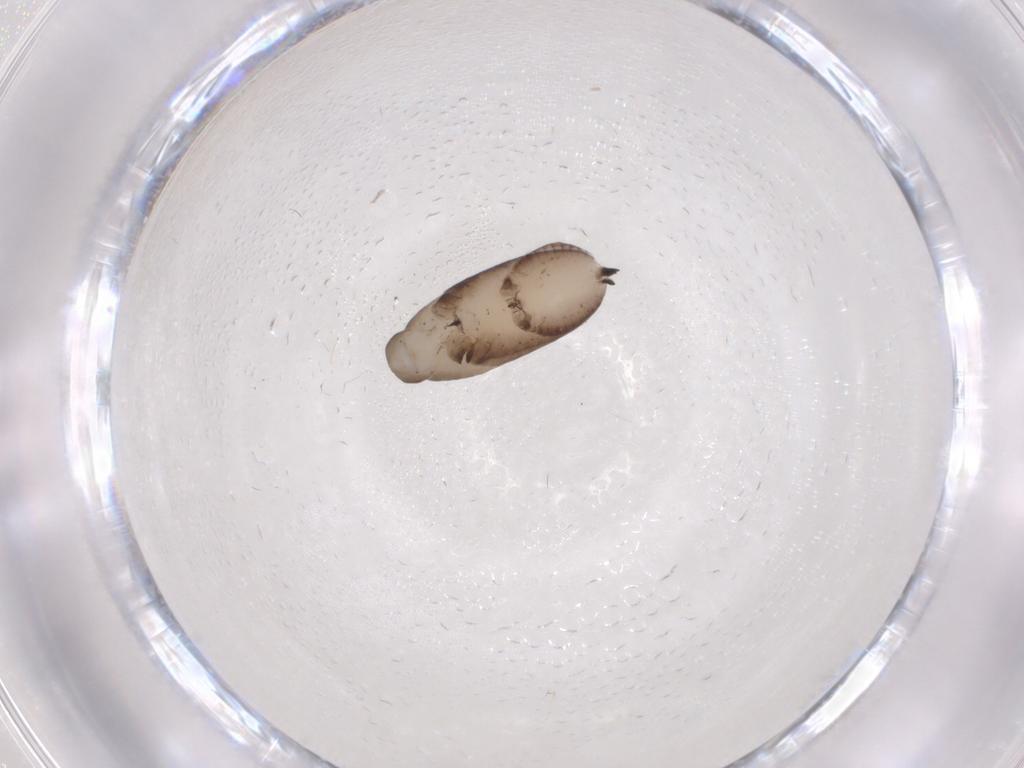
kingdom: Animalia
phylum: Arthropoda
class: Insecta
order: Hymenoptera
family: Rhopalosomatidae
